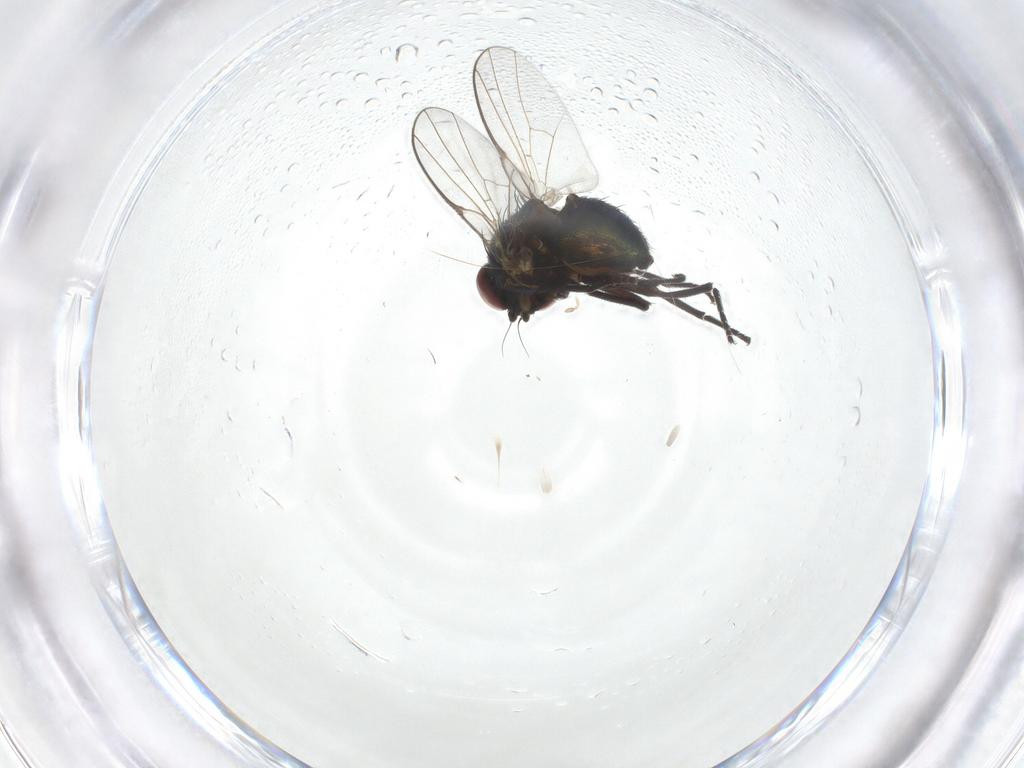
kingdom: Animalia
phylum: Arthropoda
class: Insecta
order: Diptera
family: Agromyzidae
